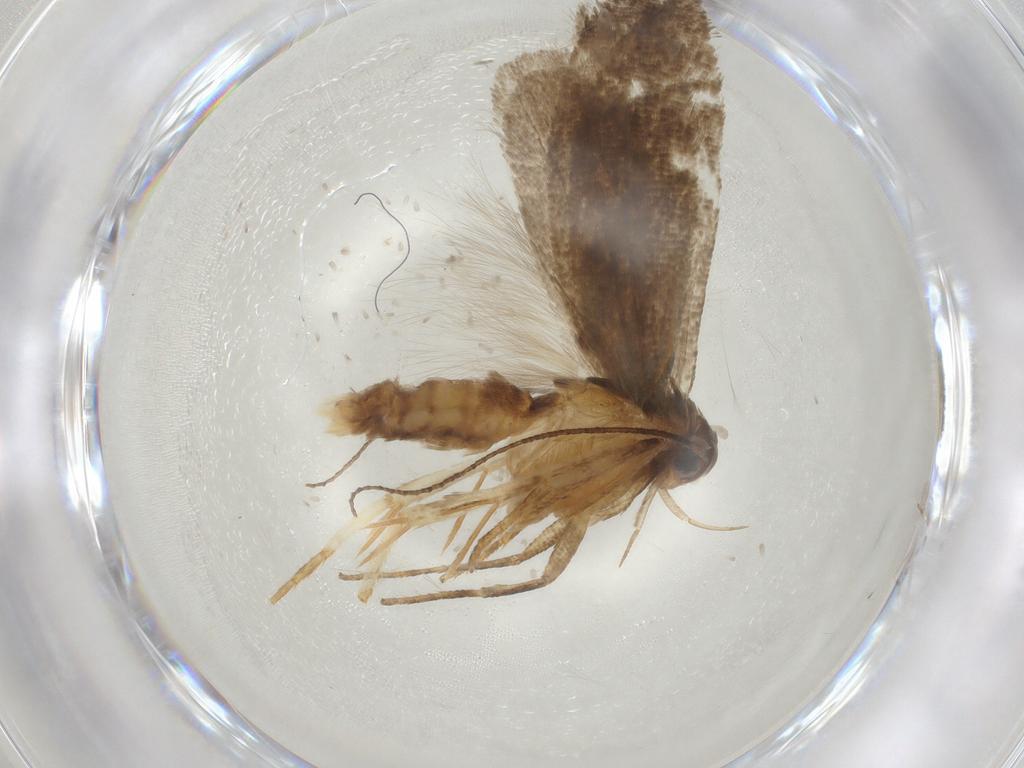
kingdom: Animalia
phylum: Arthropoda
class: Insecta
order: Lepidoptera
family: Gelechiidae
